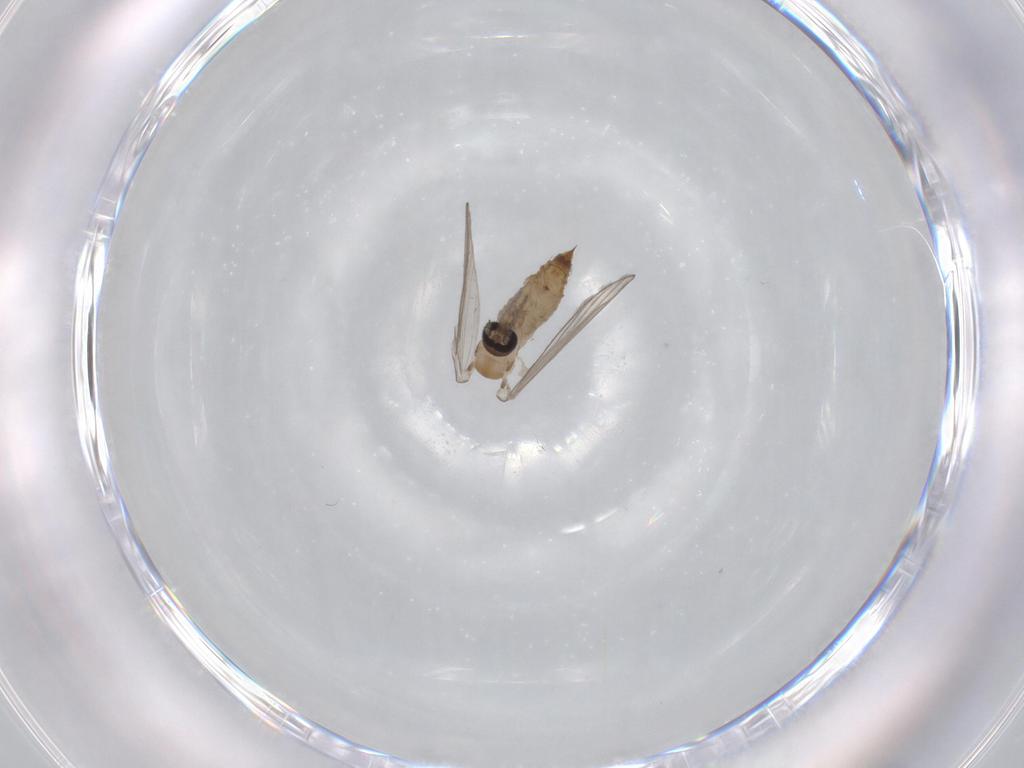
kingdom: Animalia
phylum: Arthropoda
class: Insecta
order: Diptera
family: Psychodidae
